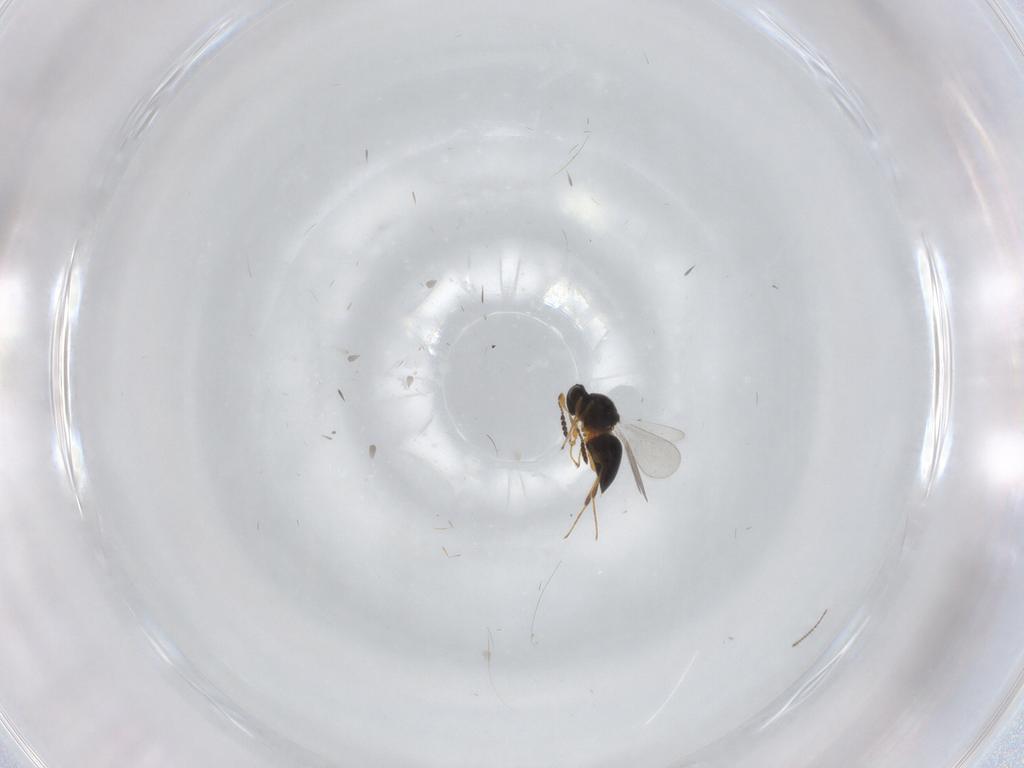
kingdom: Animalia
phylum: Arthropoda
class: Insecta
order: Hymenoptera
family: Platygastridae
